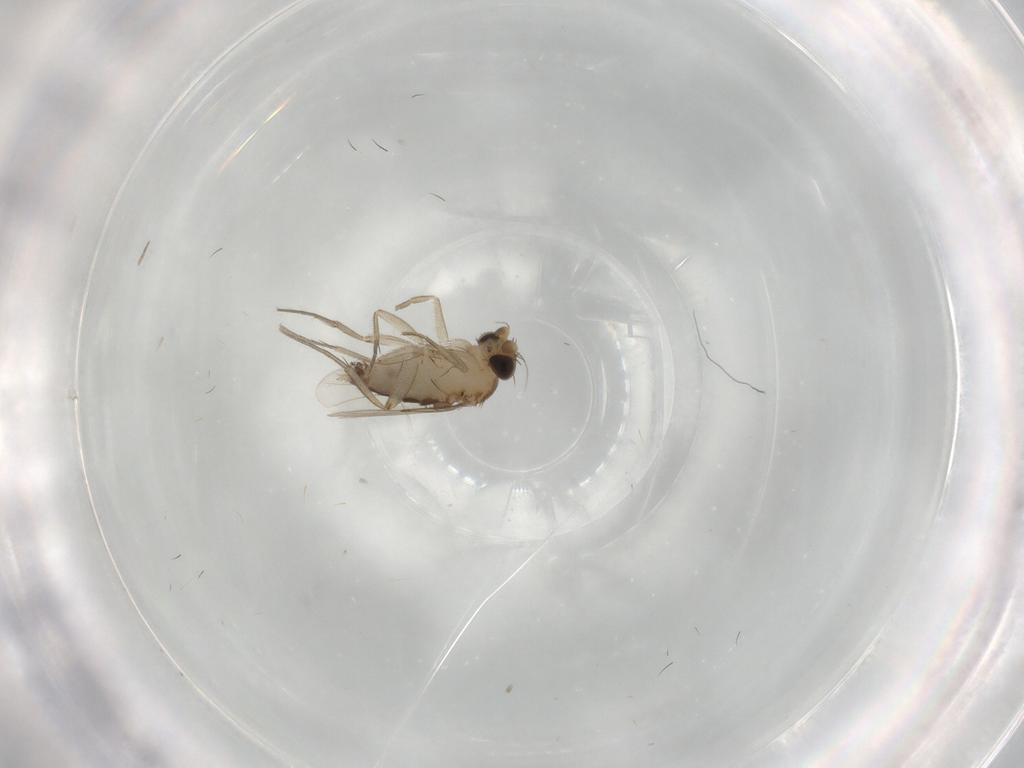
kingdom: Animalia
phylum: Arthropoda
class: Insecta
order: Diptera
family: Phoridae
